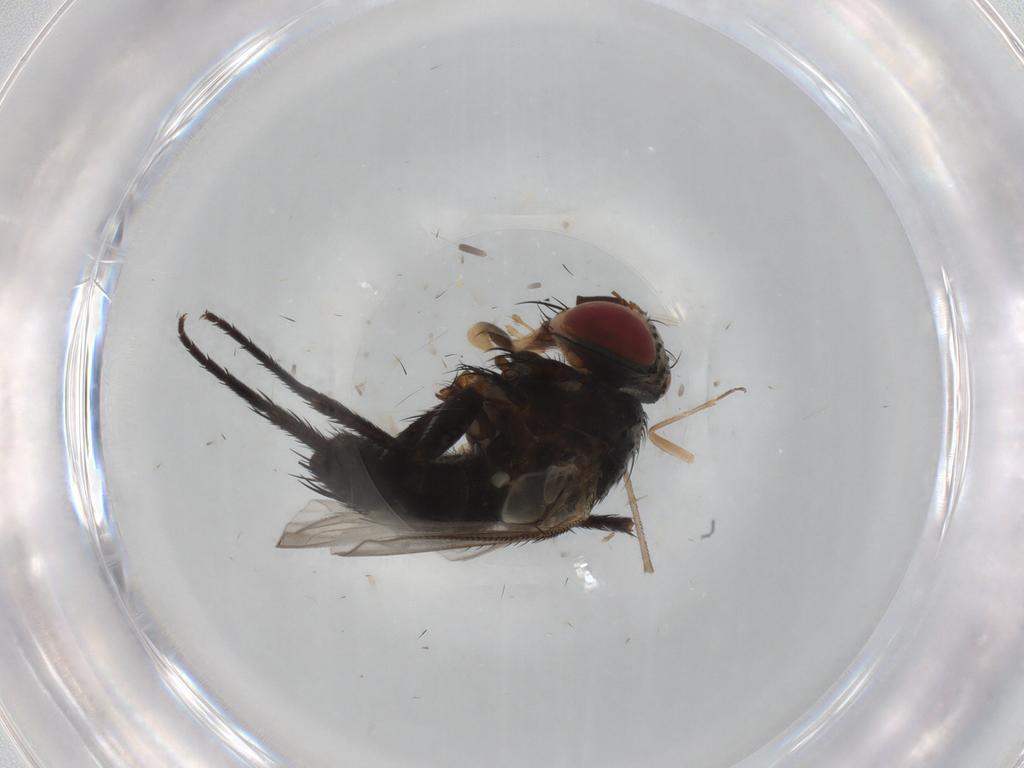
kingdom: Animalia
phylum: Arthropoda
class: Insecta
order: Diptera
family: Tachinidae
